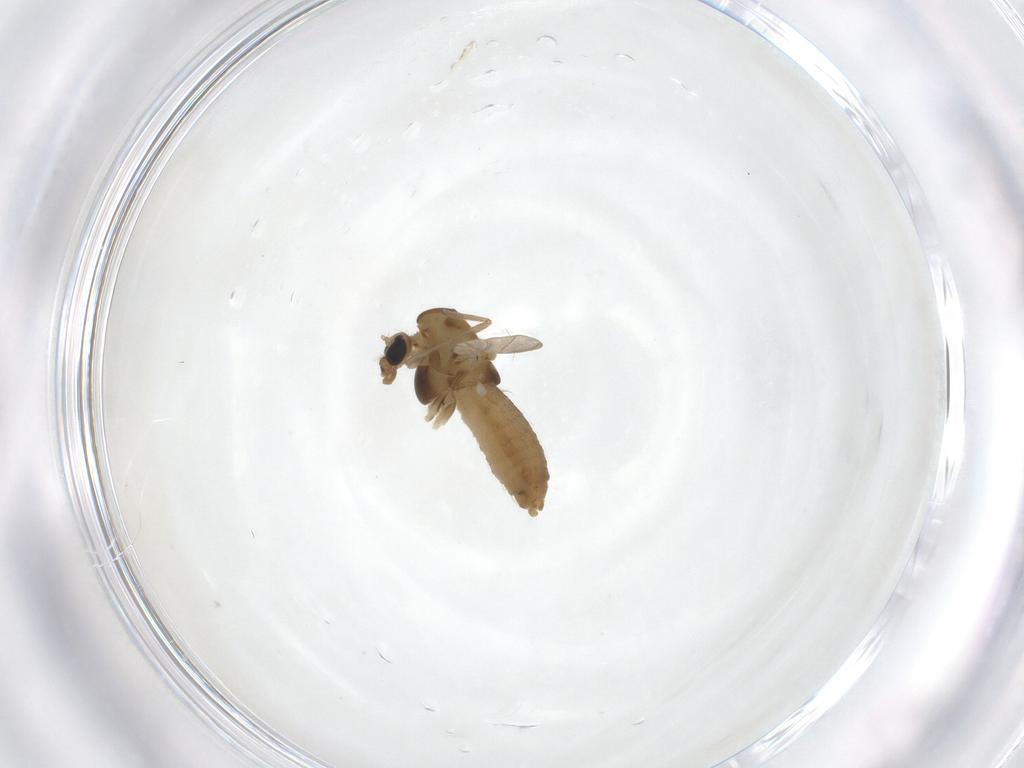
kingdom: Animalia
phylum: Arthropoda
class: Insecta
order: Diptera
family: Chironomidae
